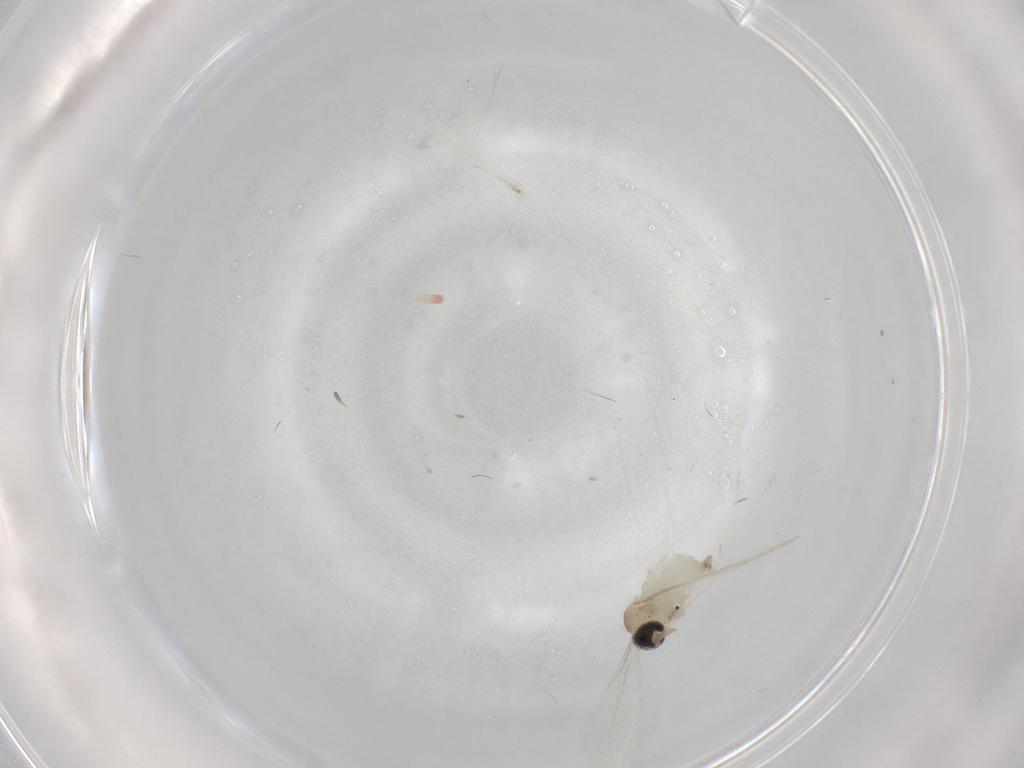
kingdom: Animalia
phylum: Arthropoda
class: Insecta
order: Diptera
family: Cecidomyiidae
